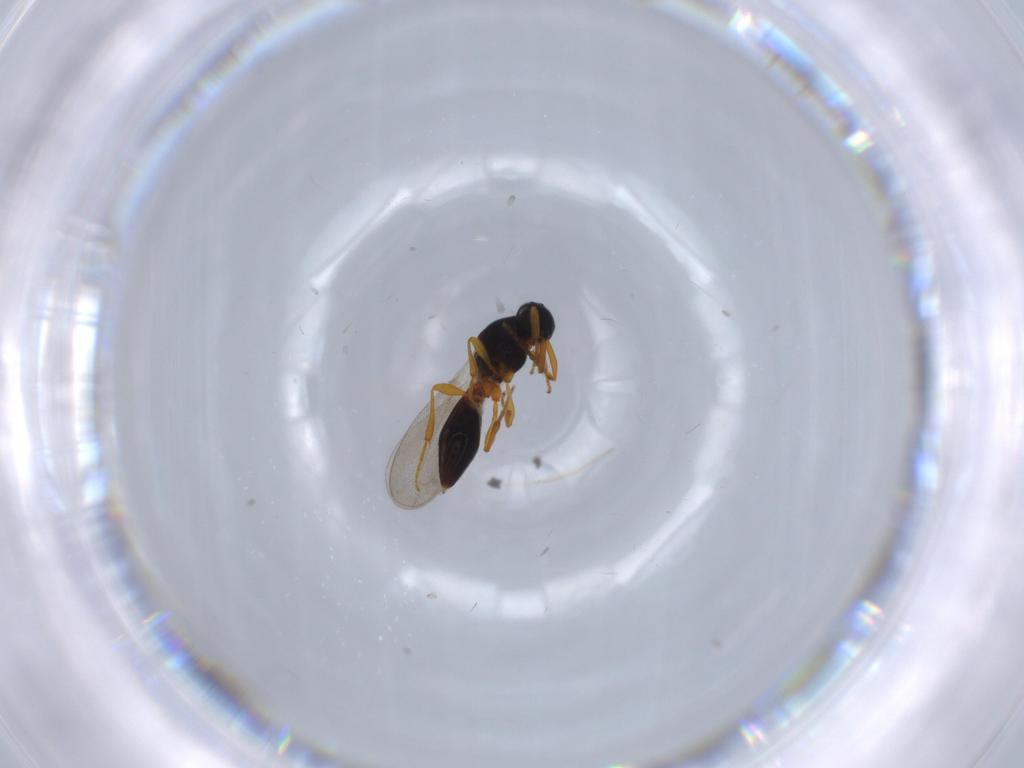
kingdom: Animalia
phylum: Arthropoda
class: Insecta
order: Hymenoptera
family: Platygastridae
